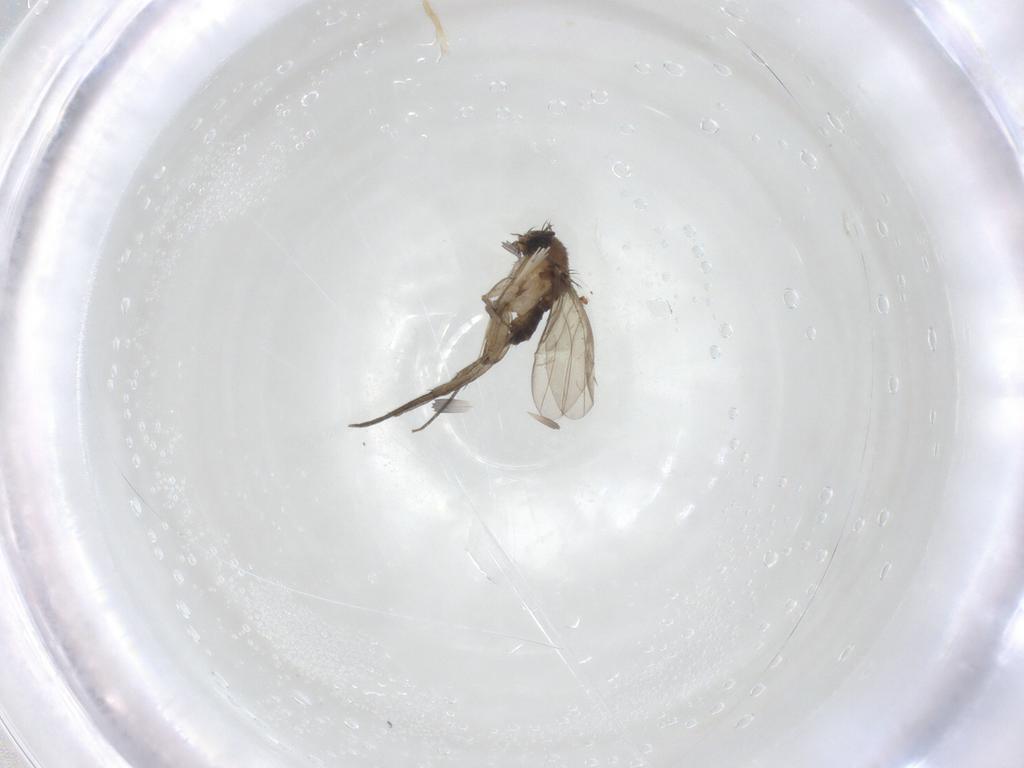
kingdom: Animalia
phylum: Arthropoda
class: Insecta
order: Diptera
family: Phoridae
